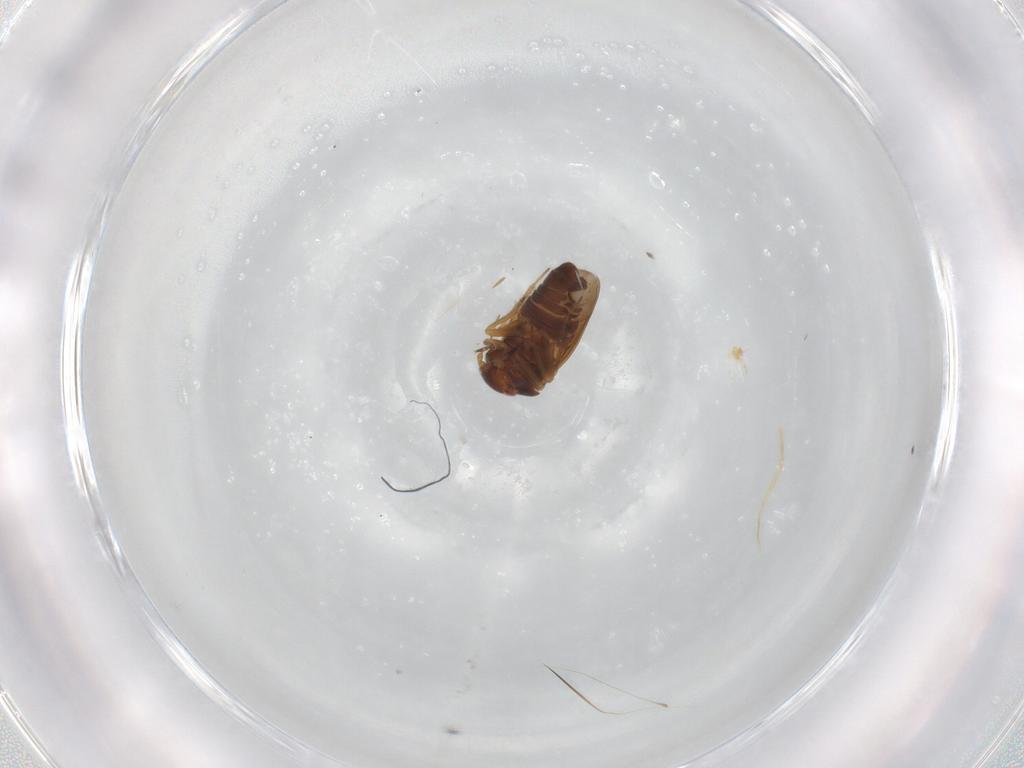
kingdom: Animalia
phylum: Arthropoda
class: Insecta
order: Hemiptera
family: Schizopteridae
